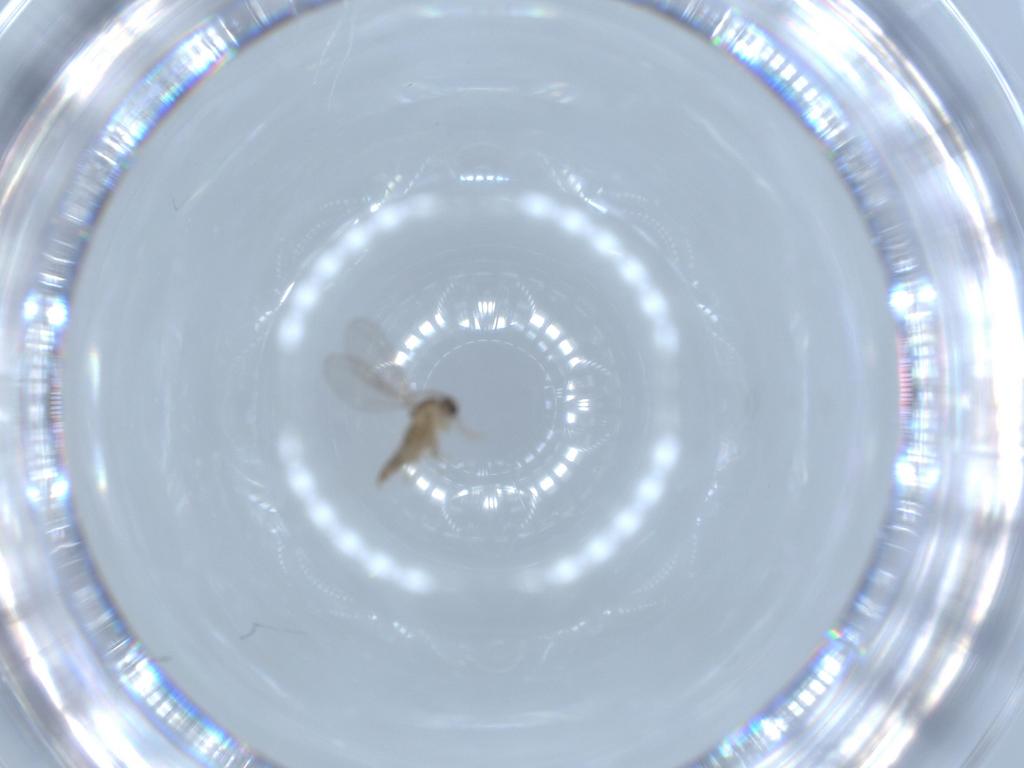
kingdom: Animalia
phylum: Arthropoda
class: Insecta
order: Diptera
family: Cecidomyiidae
